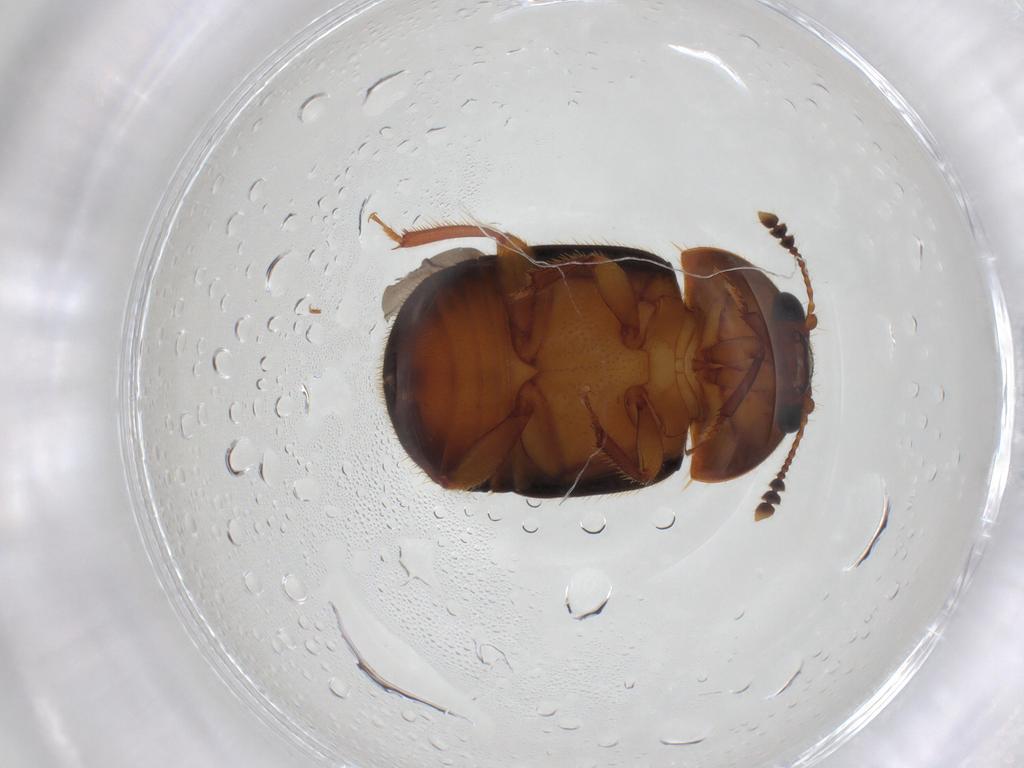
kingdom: Animalia
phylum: Arthropoda
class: Insecta
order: Coleoptera
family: Nitidulidae
